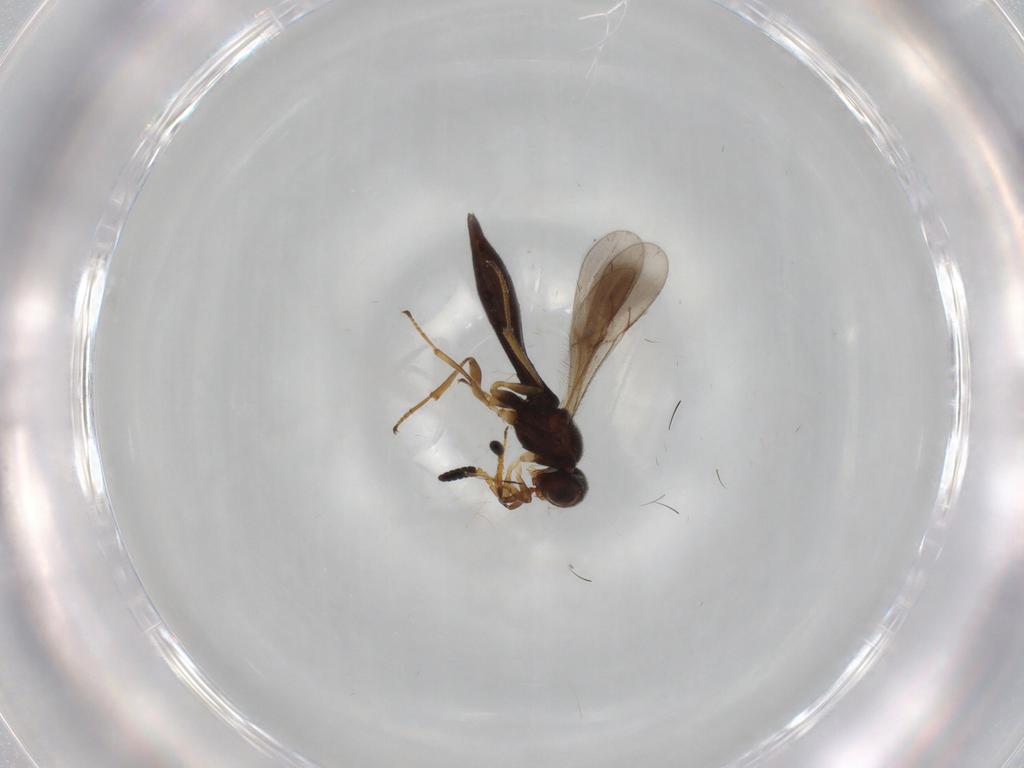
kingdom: Animalia
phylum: Arthropoda
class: Insecta
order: Hymenoptera
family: Scelionidae
